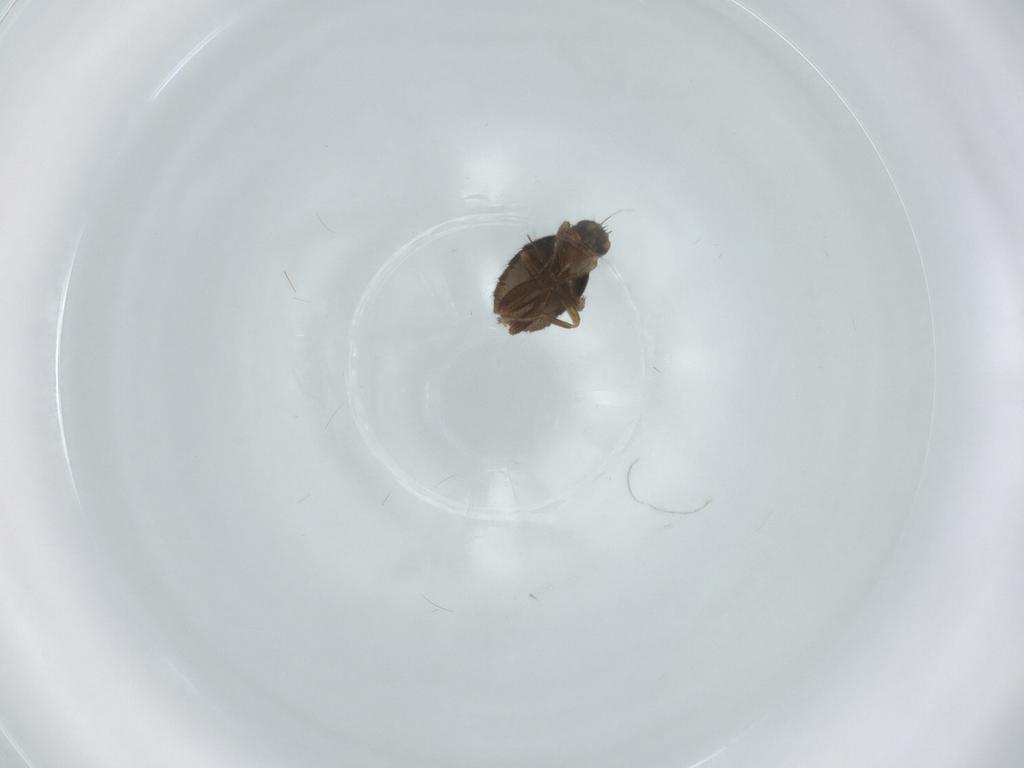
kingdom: Animalia
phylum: Arthropoda
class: Insecta
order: Diptera
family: Phoridae
